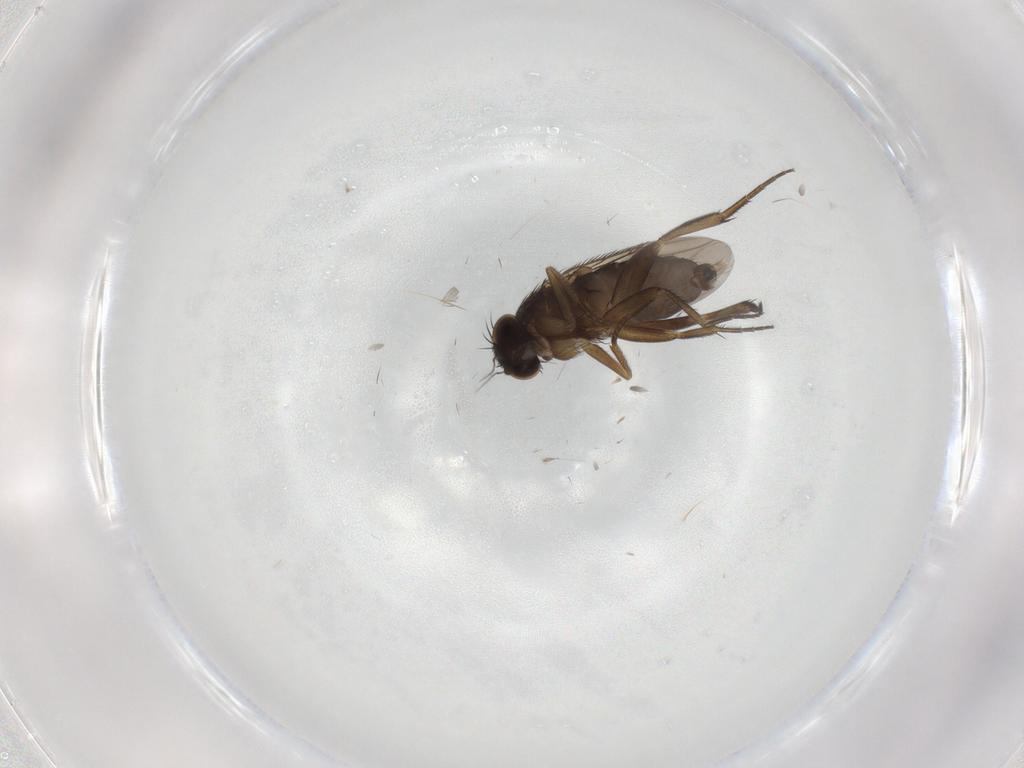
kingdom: Animalia
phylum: Arthropoda
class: Insecta
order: Diptera
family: Phoridae
